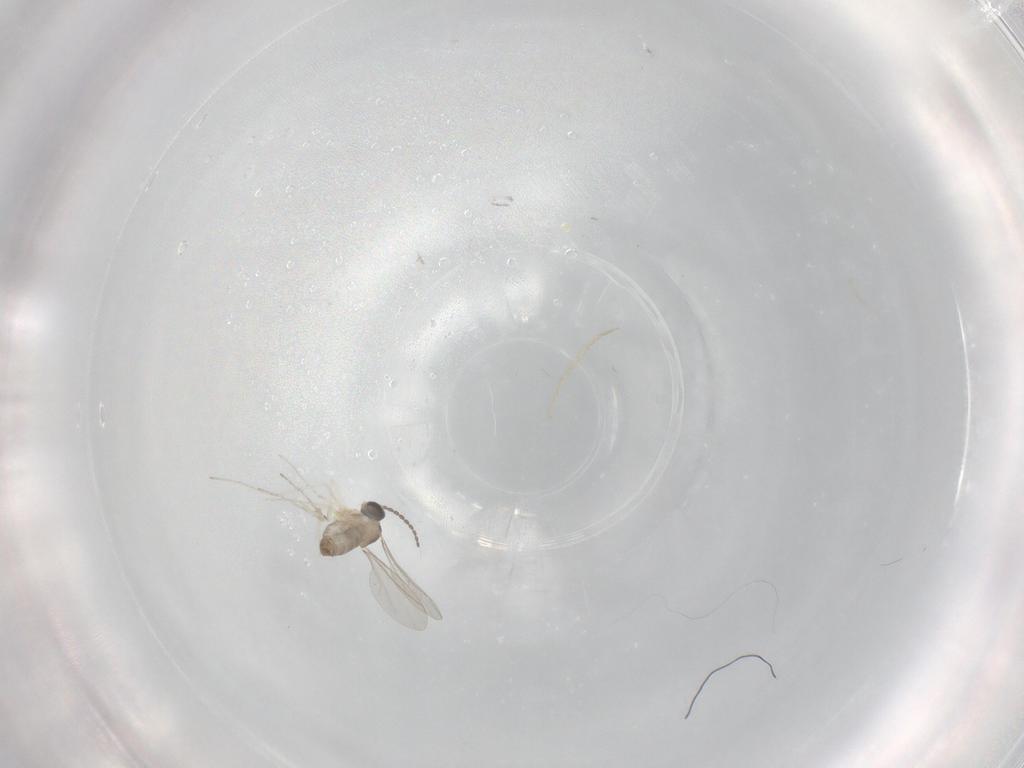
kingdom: Animalia
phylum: Arthropoda
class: Insecta
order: Diptera
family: Cecidomyiidae
